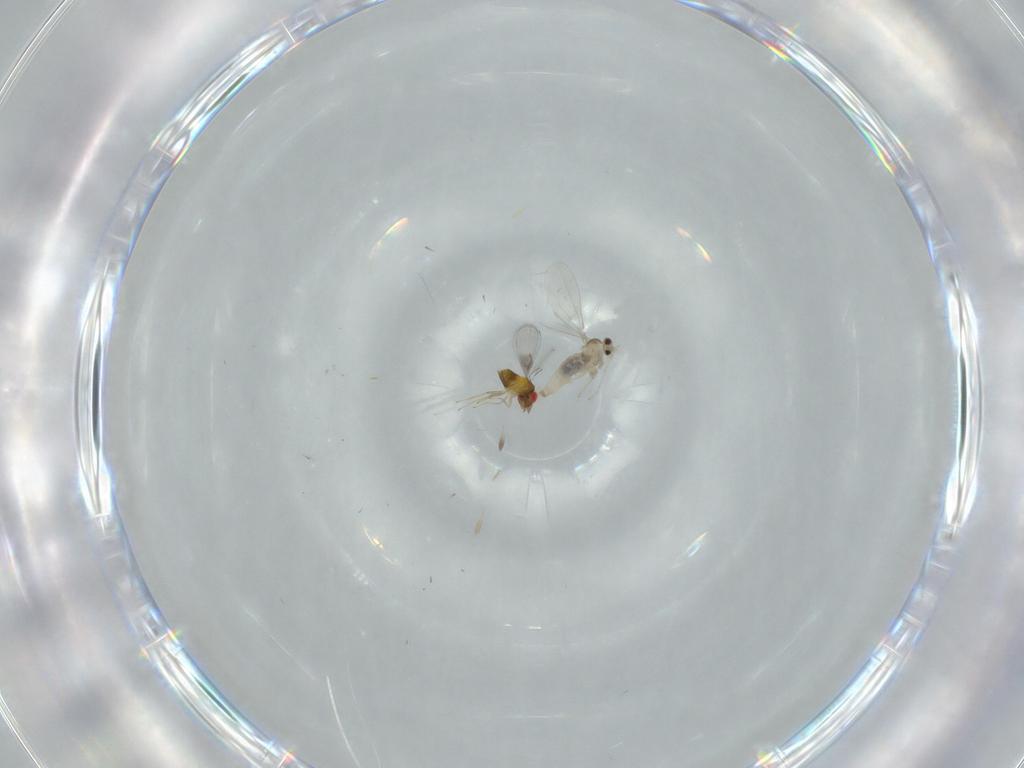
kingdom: Animalia
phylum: Arthropoda
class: Insecta
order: Diptera
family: Cecidomyiidae
